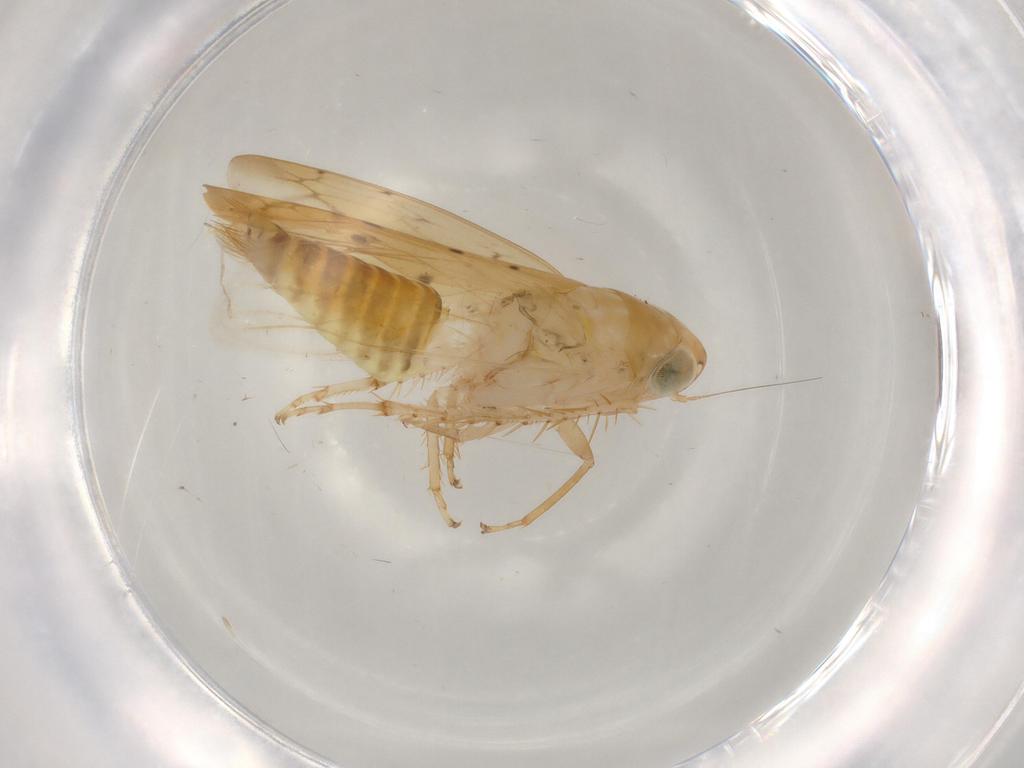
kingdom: Animalia
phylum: Arthropoda
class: Insecta
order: Hemiptera
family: Cicadellidae
